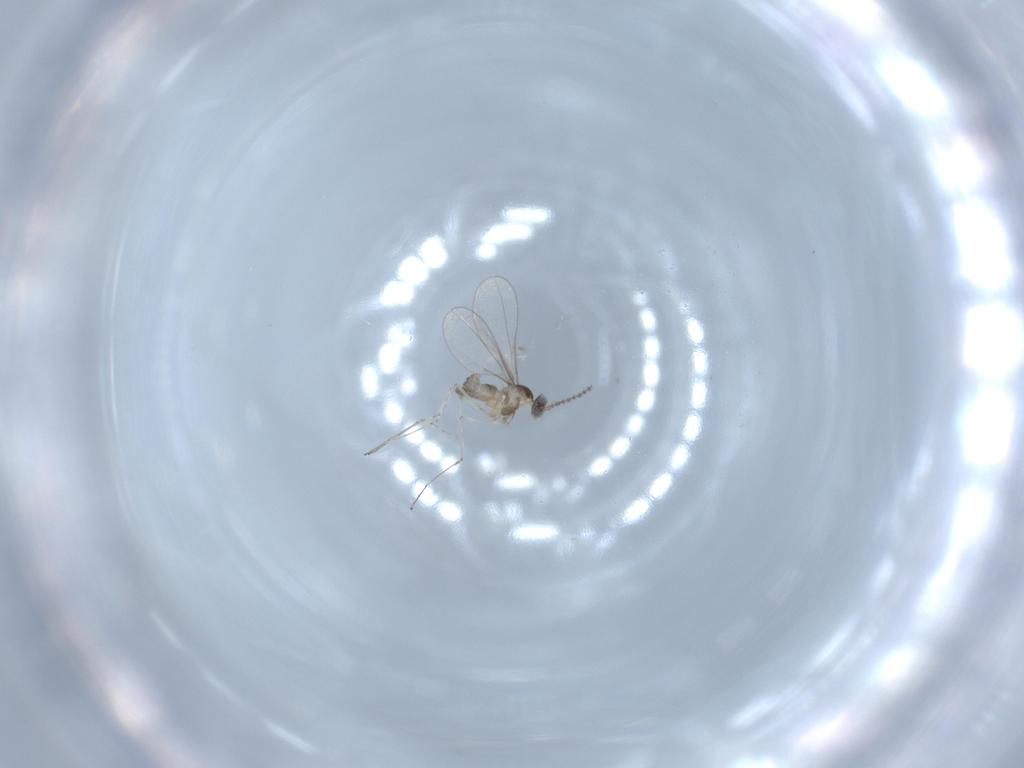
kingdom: Animalia
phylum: Arthropoda
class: Insecta
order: Diptera
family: Cecidomyiidae
